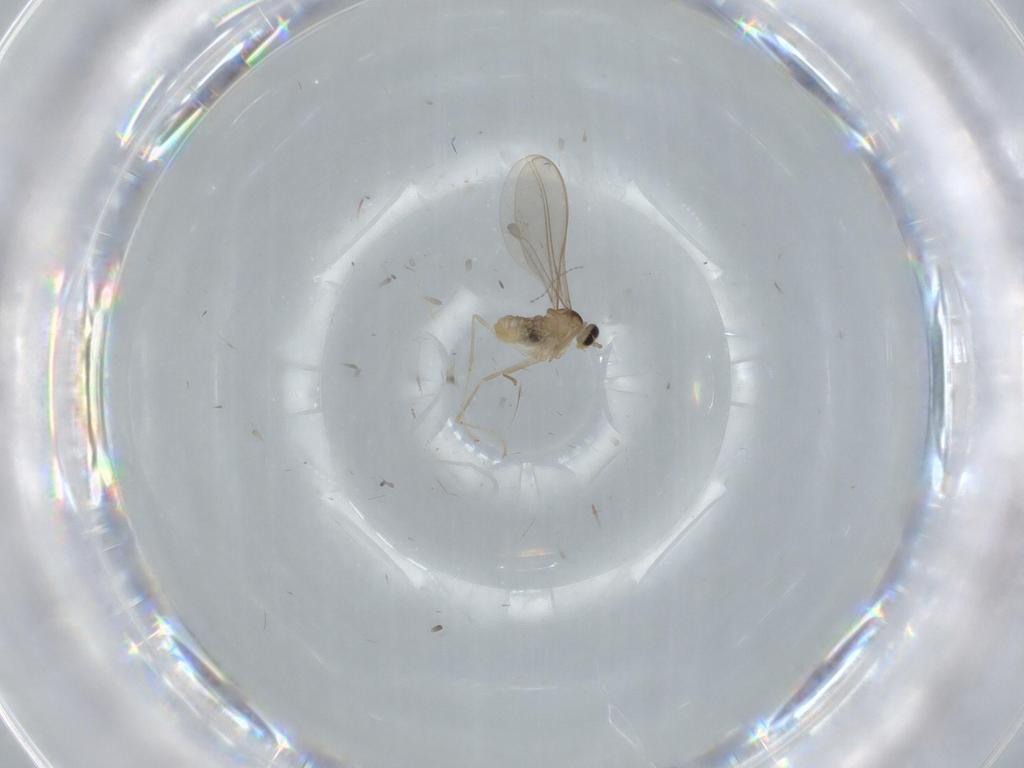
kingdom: Animalia
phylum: Arthropoda
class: Insecta
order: Diptera
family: Cecidomyiidae
